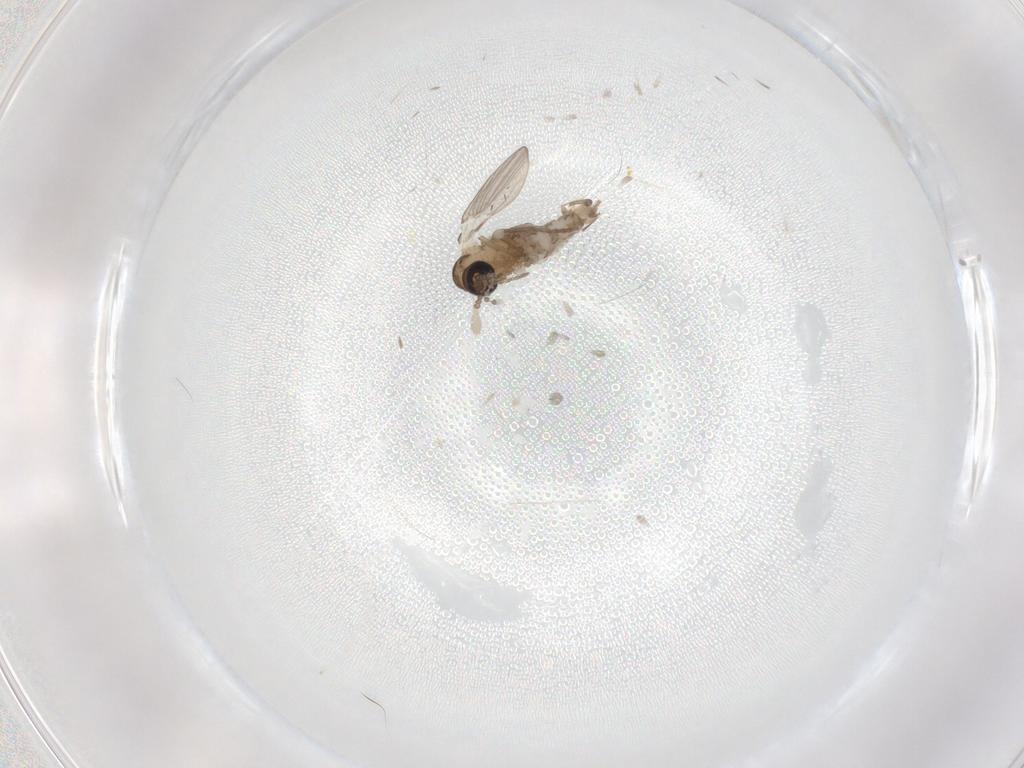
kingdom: Animalia
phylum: Arthropoda
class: Insecta
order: Diptera
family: Psychodidae
